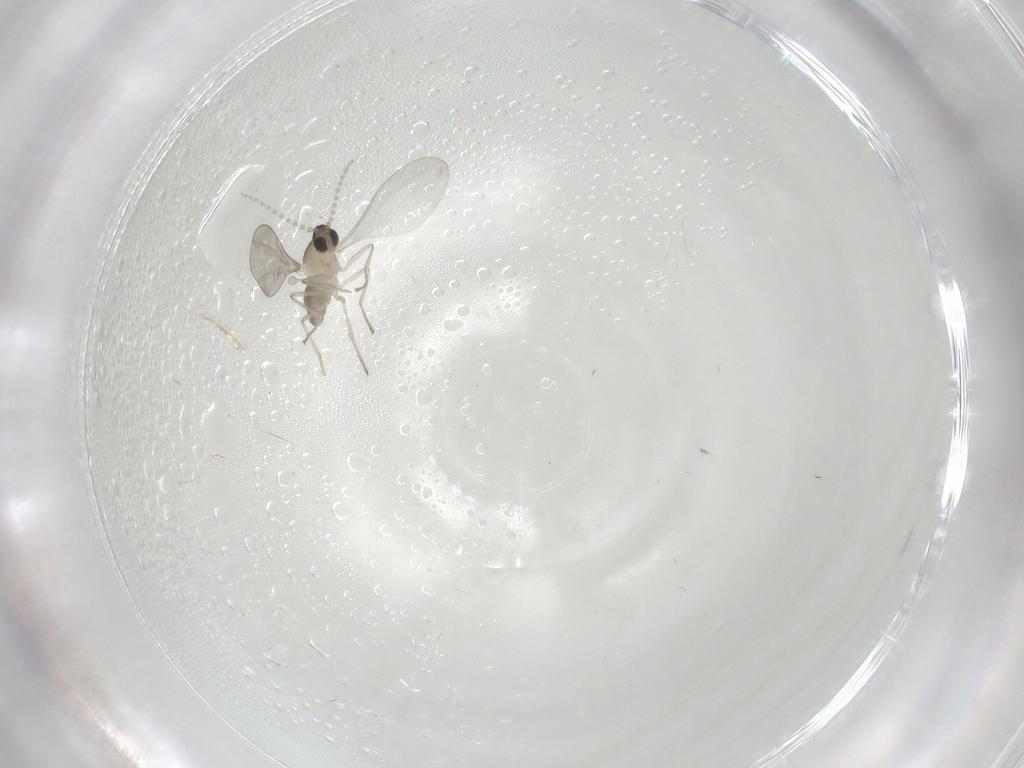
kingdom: Animalia
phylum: Arthropoda
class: Insecta
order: Diptera
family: Cecidomyiidae
